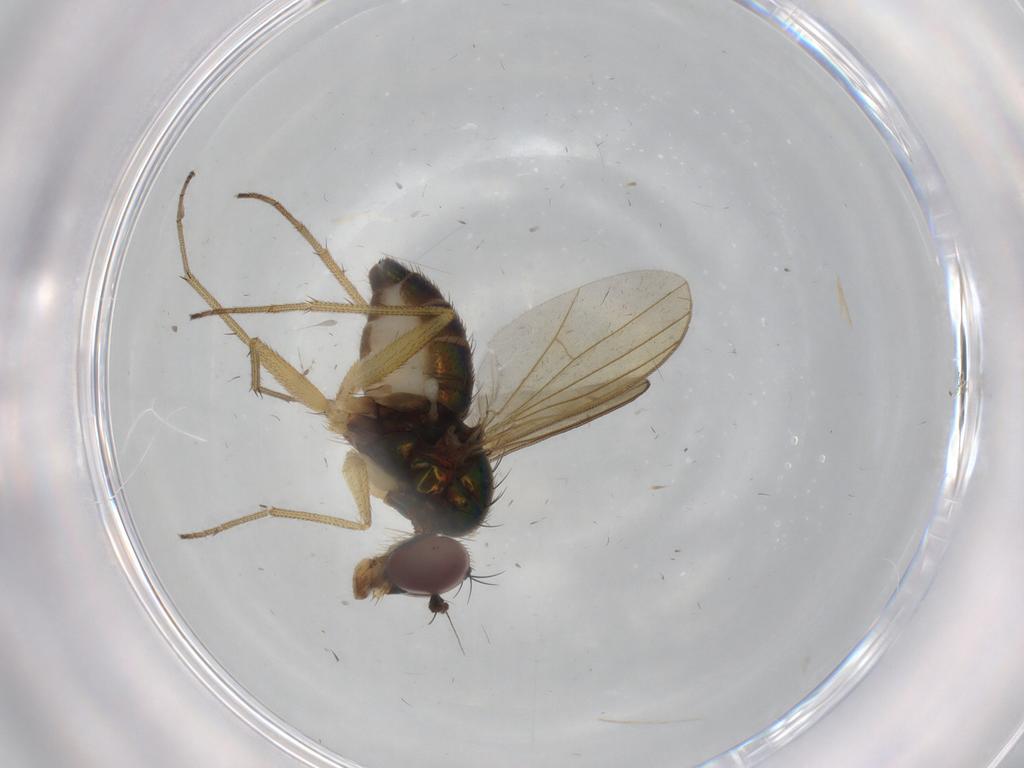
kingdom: Animalia
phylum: Arthropoda
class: Insecta
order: Diptera
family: Dolichopodidae
